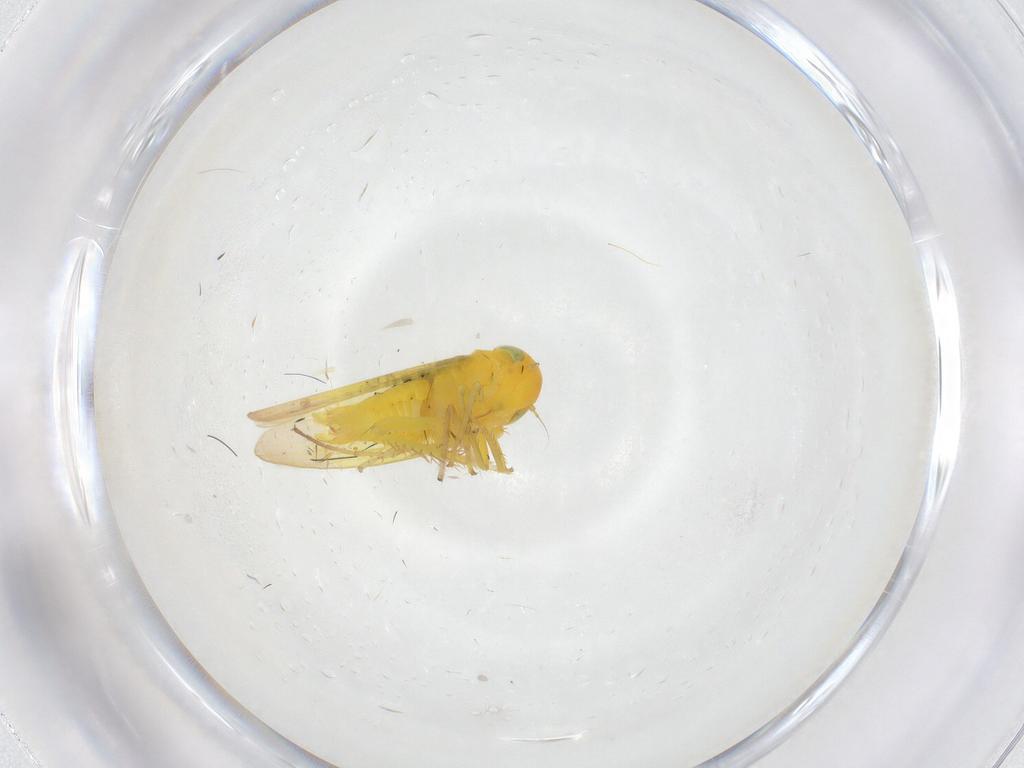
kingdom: Animalia
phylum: Arthropoda
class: Insecta
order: Hemiptera
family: Cicadellidae
